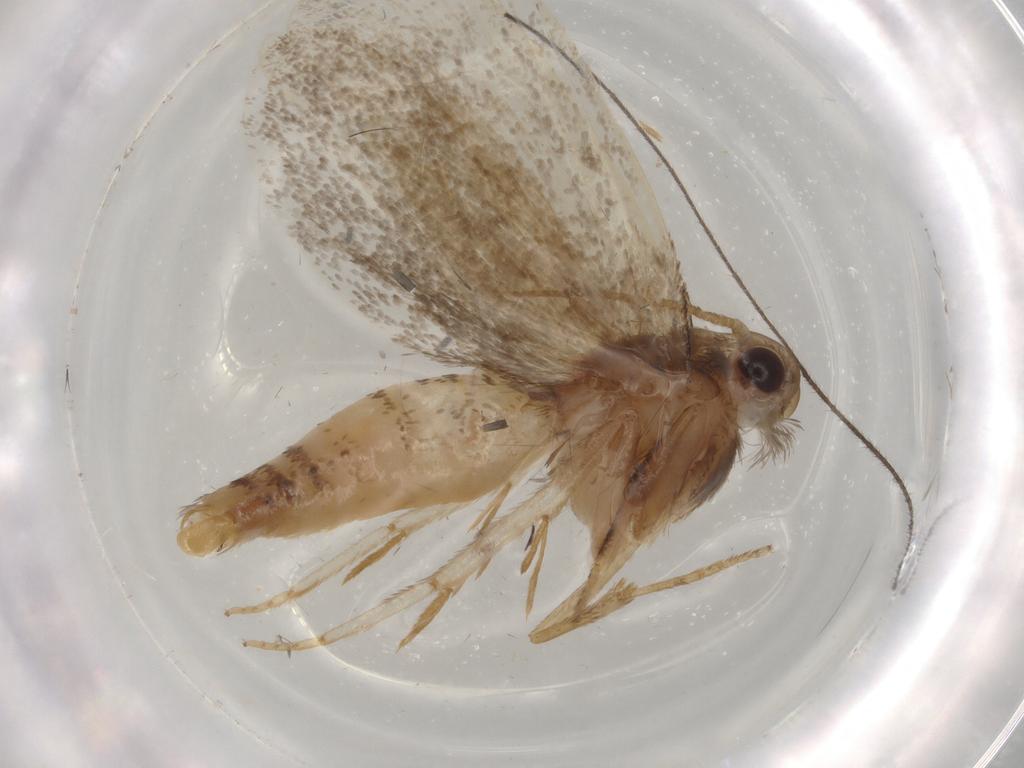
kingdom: Animalia
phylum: Arthropoda
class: Insecta
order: Lepidoptera
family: Tineidae
